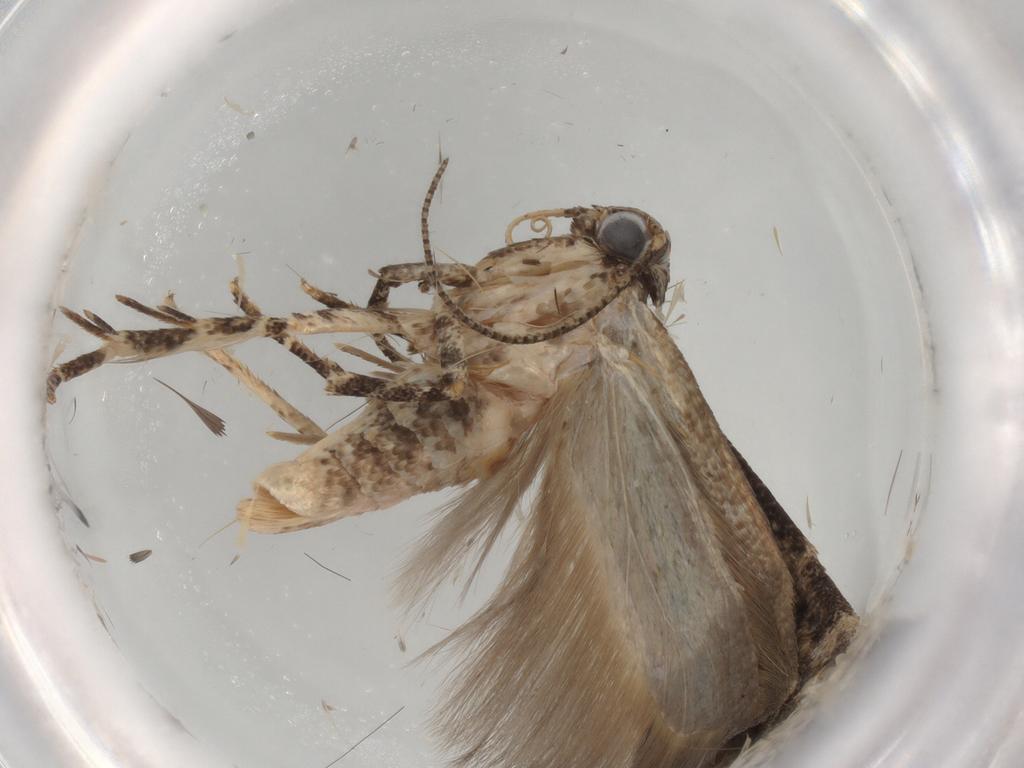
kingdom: Animalia
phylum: Arthropoda
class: Insecta
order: Lepidoptera
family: Gelechiidae
